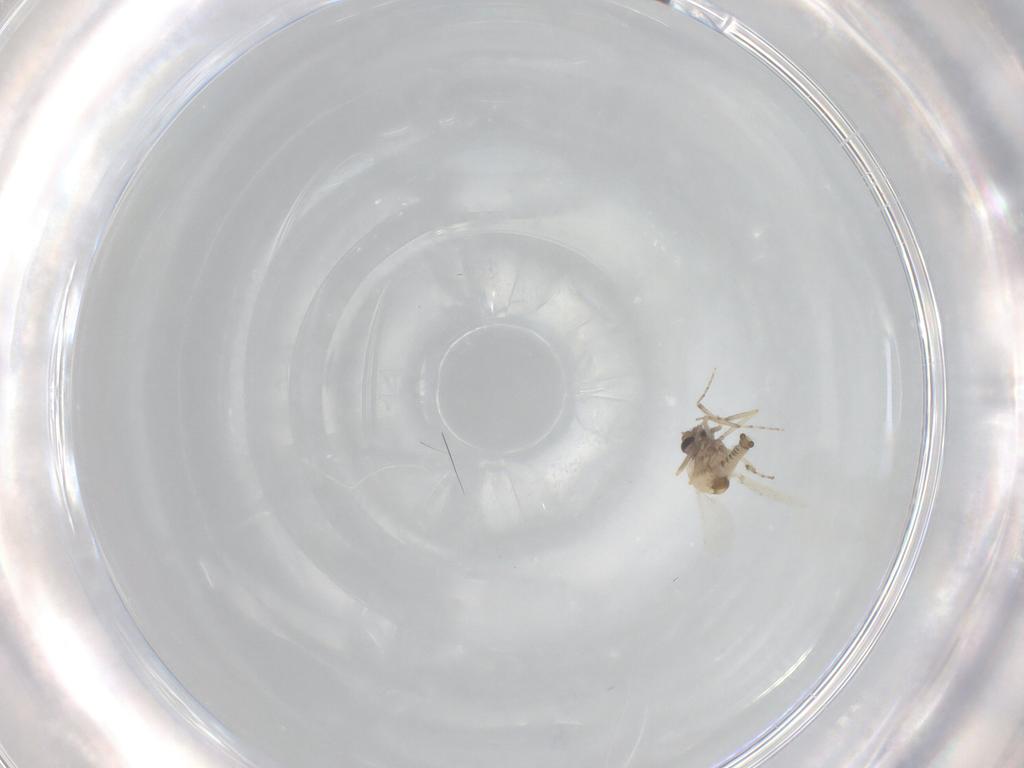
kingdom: Animalia
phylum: Arthropoda
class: Insecta
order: Diptera
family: Ceratopogonidae
